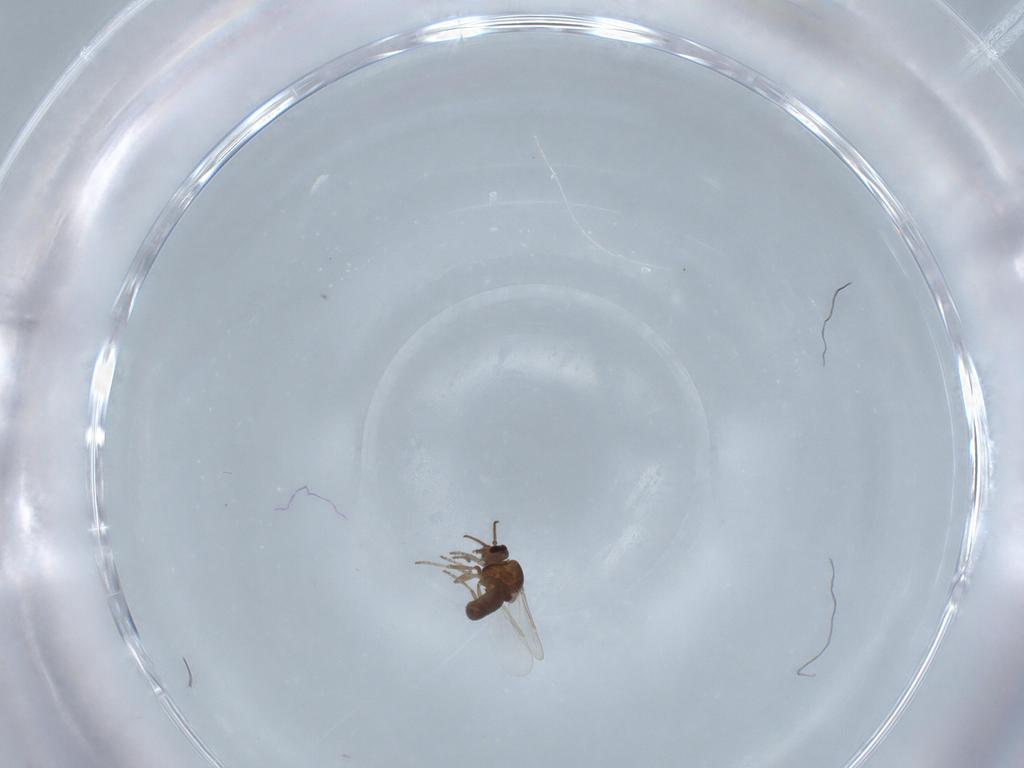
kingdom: Animalia
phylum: Arthropoda
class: Insecta
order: Diptera
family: Ceratopogonidae
